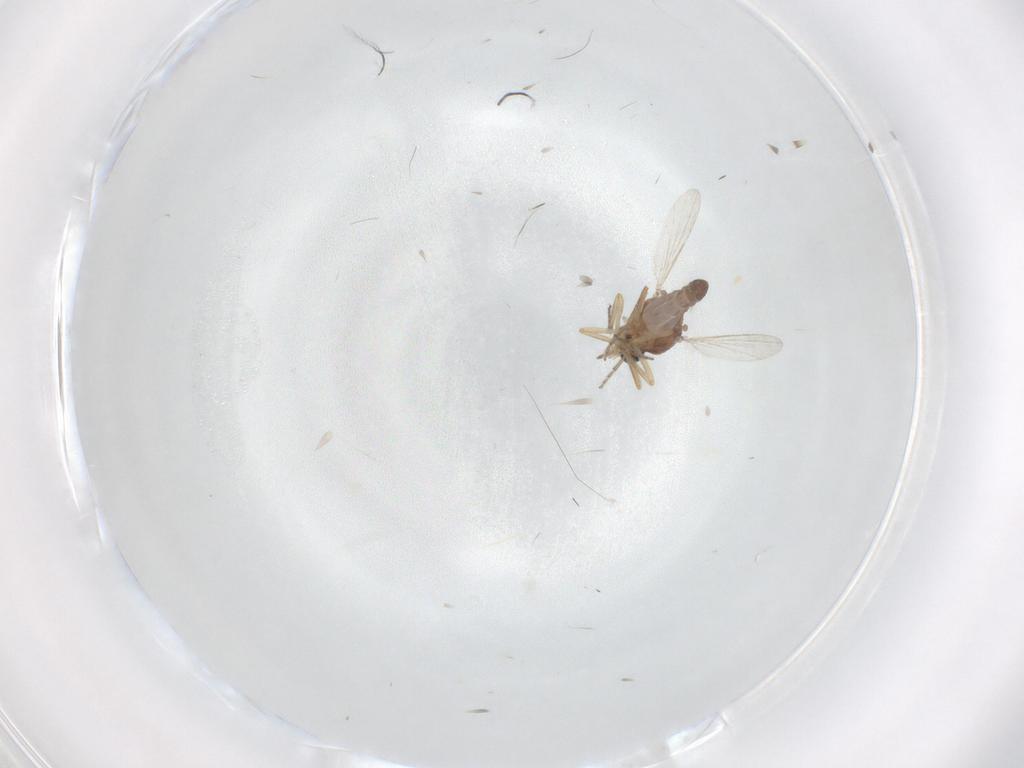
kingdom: Animalia
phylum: Arthropoda
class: Insecta
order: Diptera
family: Ceratopogonidae
